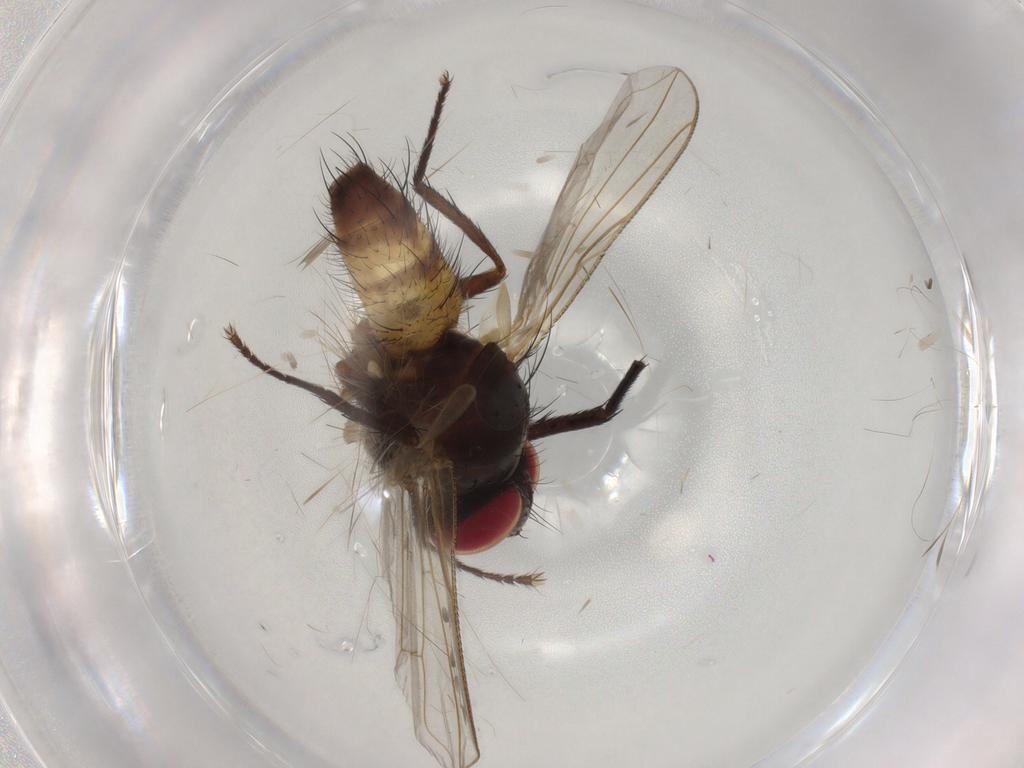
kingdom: Animalia
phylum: Arthropoda
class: Insecta
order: Diptera
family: Calliphoridae
